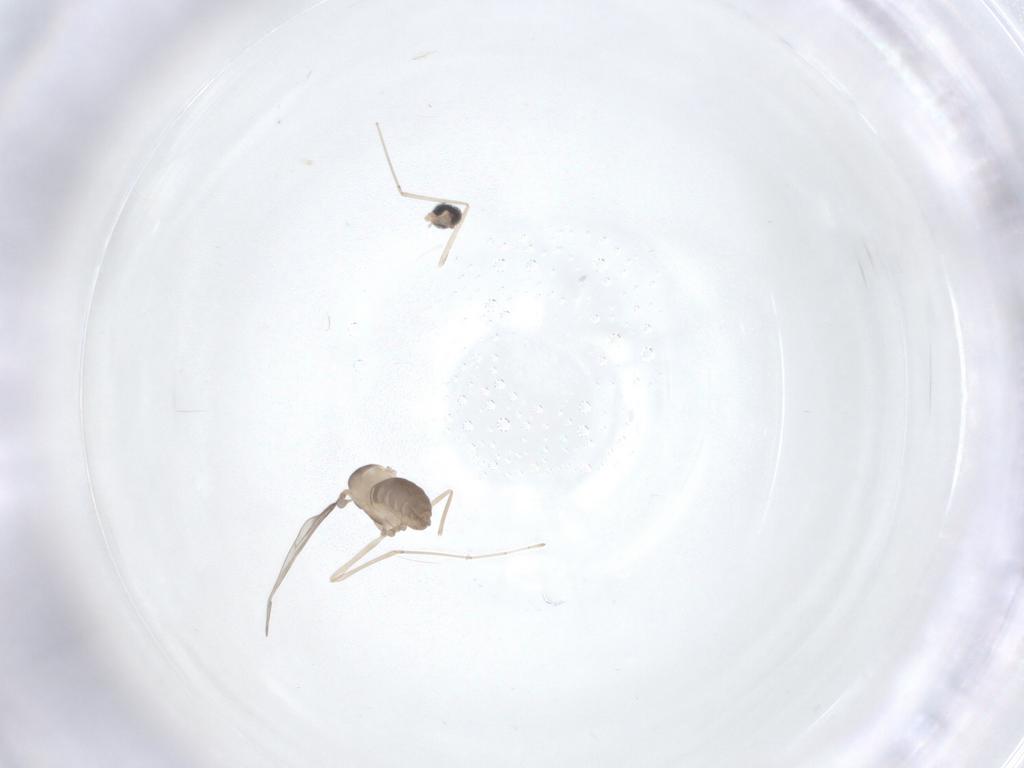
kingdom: Animalia
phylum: Arthropoda
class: Insecta
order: Diptera
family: Cecidomyiidae
